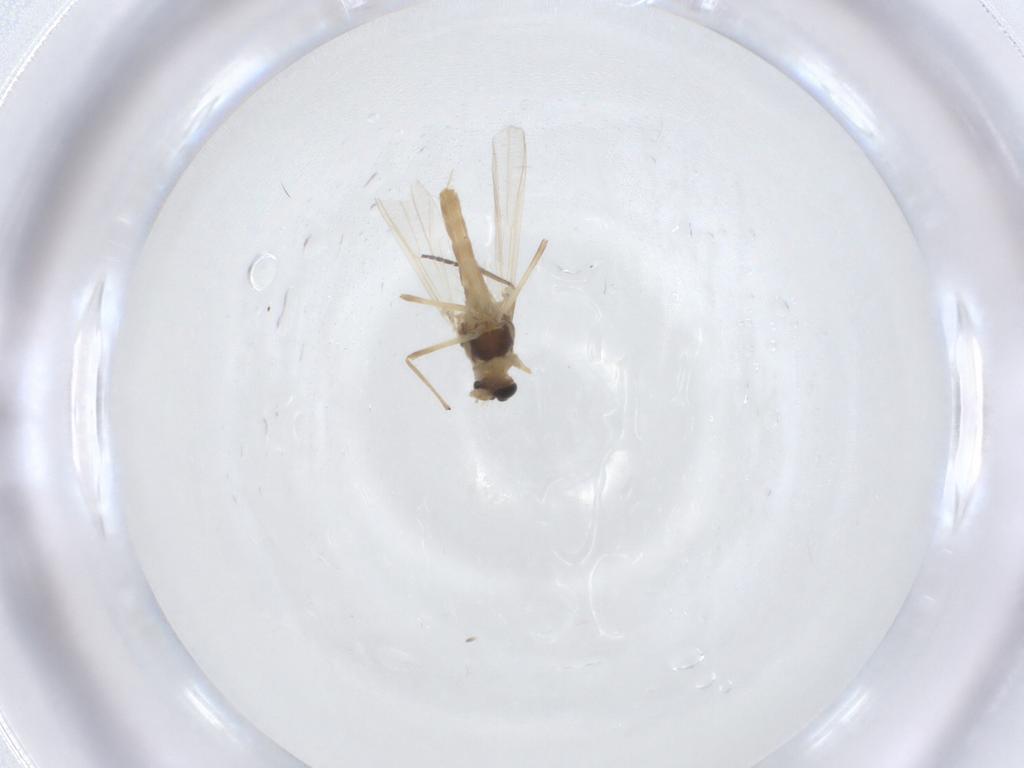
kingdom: Animalia
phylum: Arthropoda
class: Insecta
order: Diptera
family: Chironomidae
